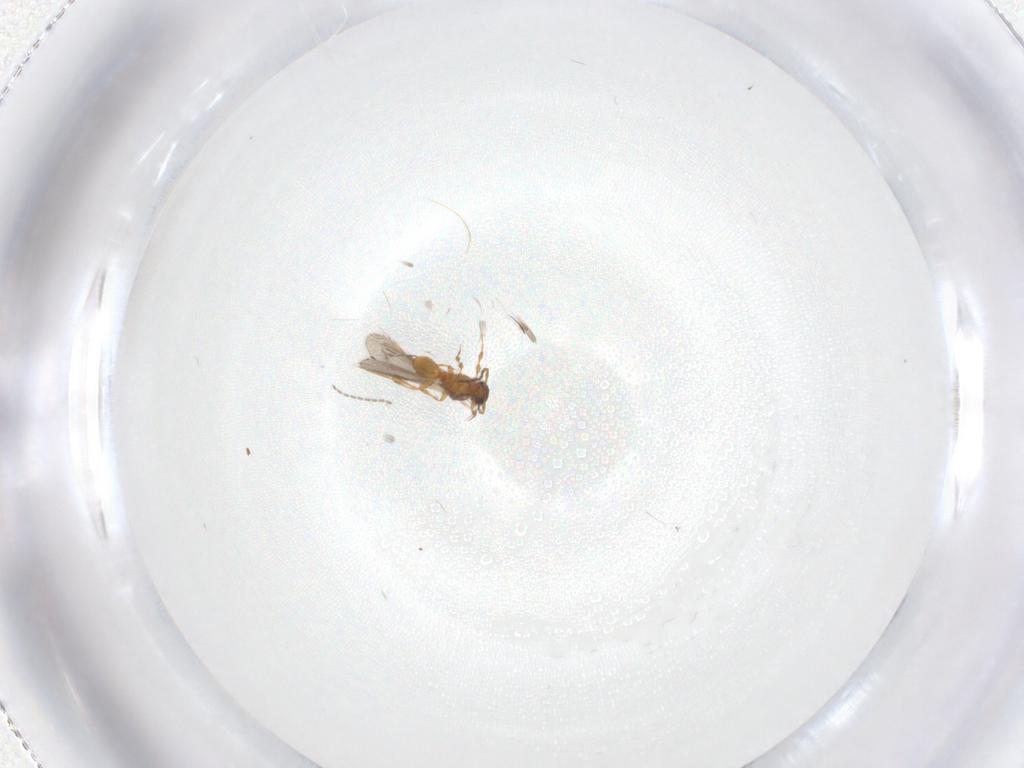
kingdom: Animalia
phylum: Arthropoda
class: Insecta
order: Hymenoptera
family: Platygastridae
